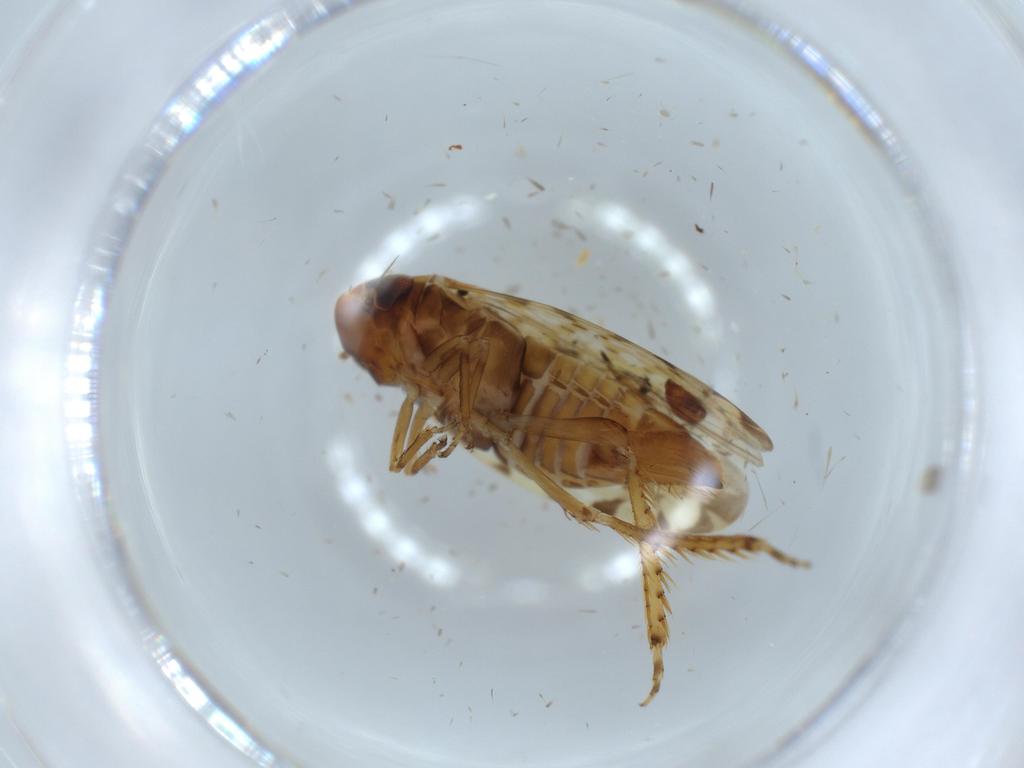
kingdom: Animalia
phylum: Arthropoda
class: Insecta
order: Hemiptera
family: Cicadellidae
